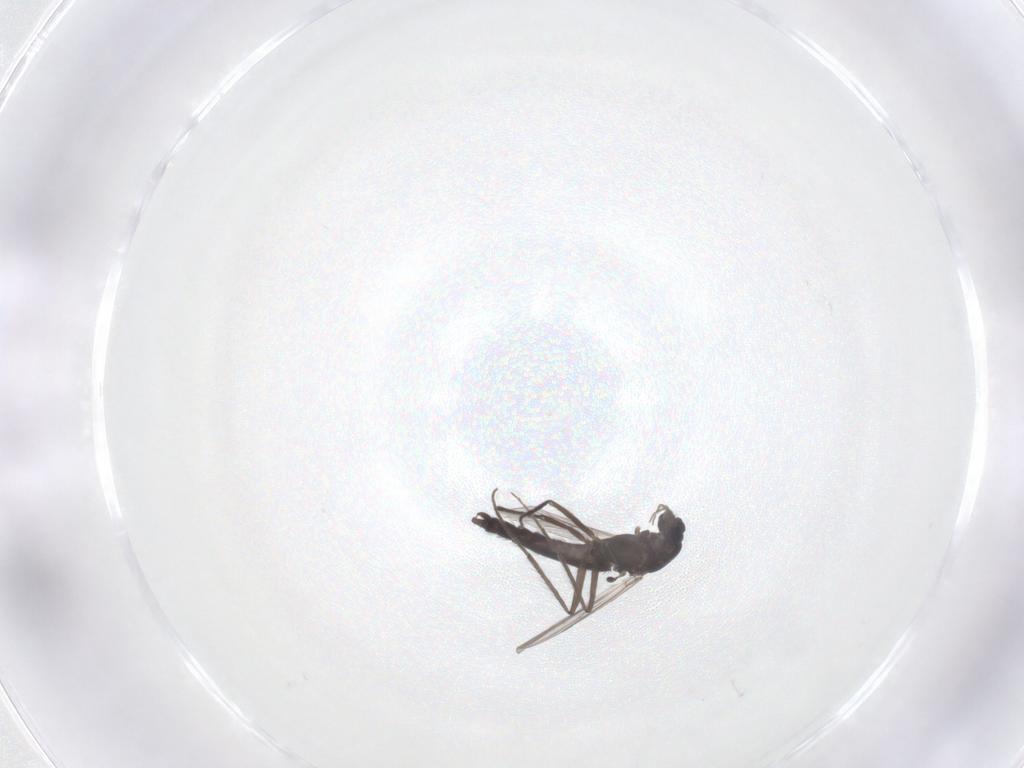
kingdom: Animalia
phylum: Arthropoda
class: Insecta
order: Diptera
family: Chironomidae
